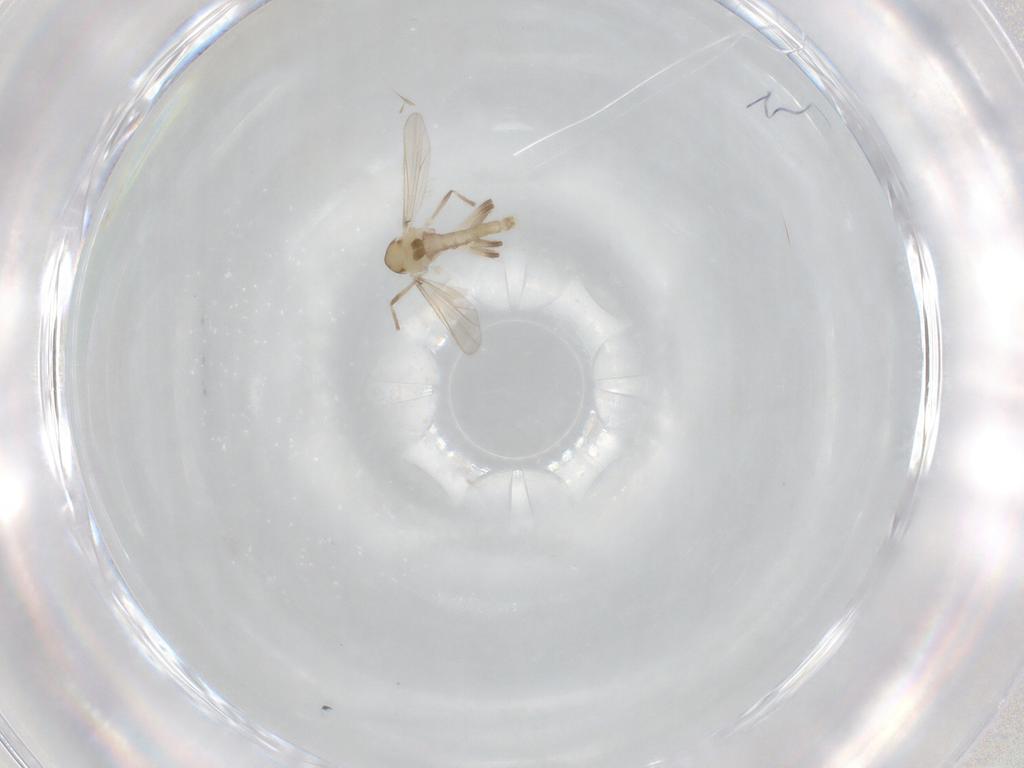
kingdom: Animalia
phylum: Arthropoda
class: Insecta
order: Diptera
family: Chironomidae
